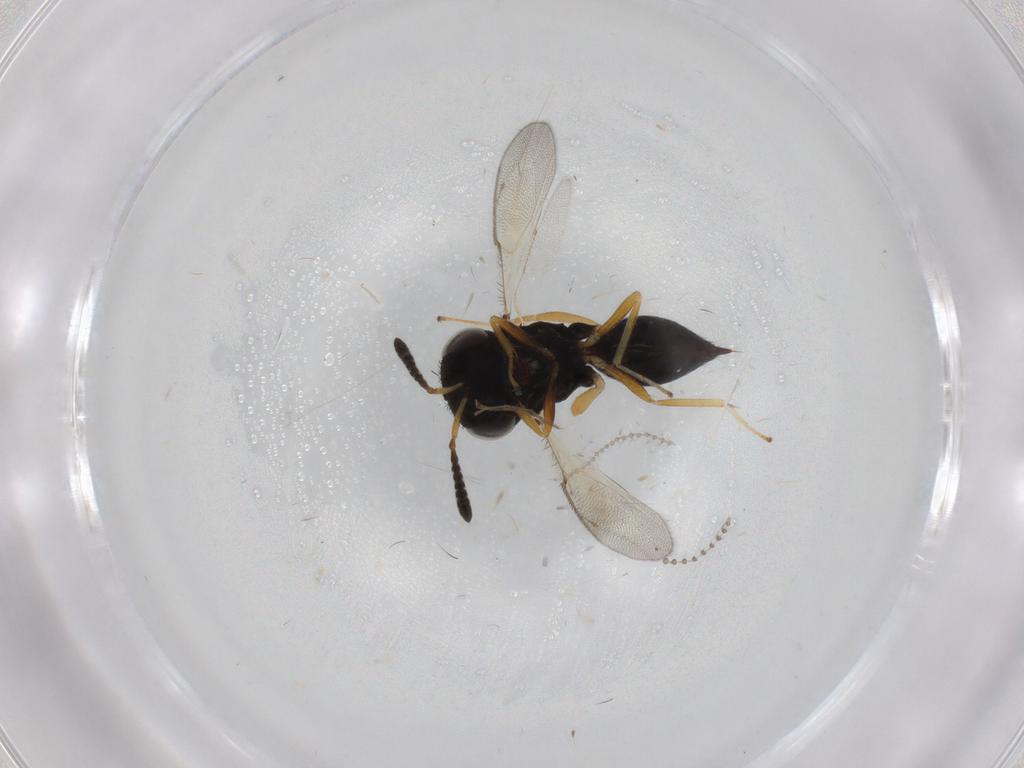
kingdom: Animalia
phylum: Arthropoda
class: Insecta
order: Hymenoptera
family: Pteromalidae
